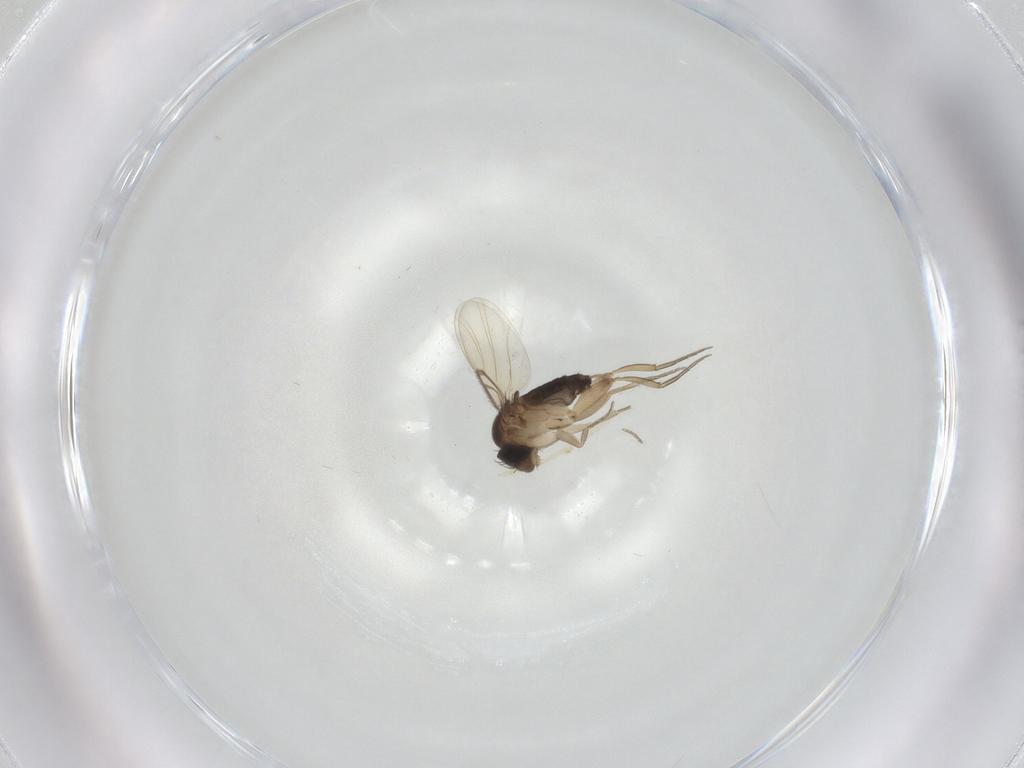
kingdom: Animalia
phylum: Arthropoda
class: Insecta
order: Diptera
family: Phoridae
